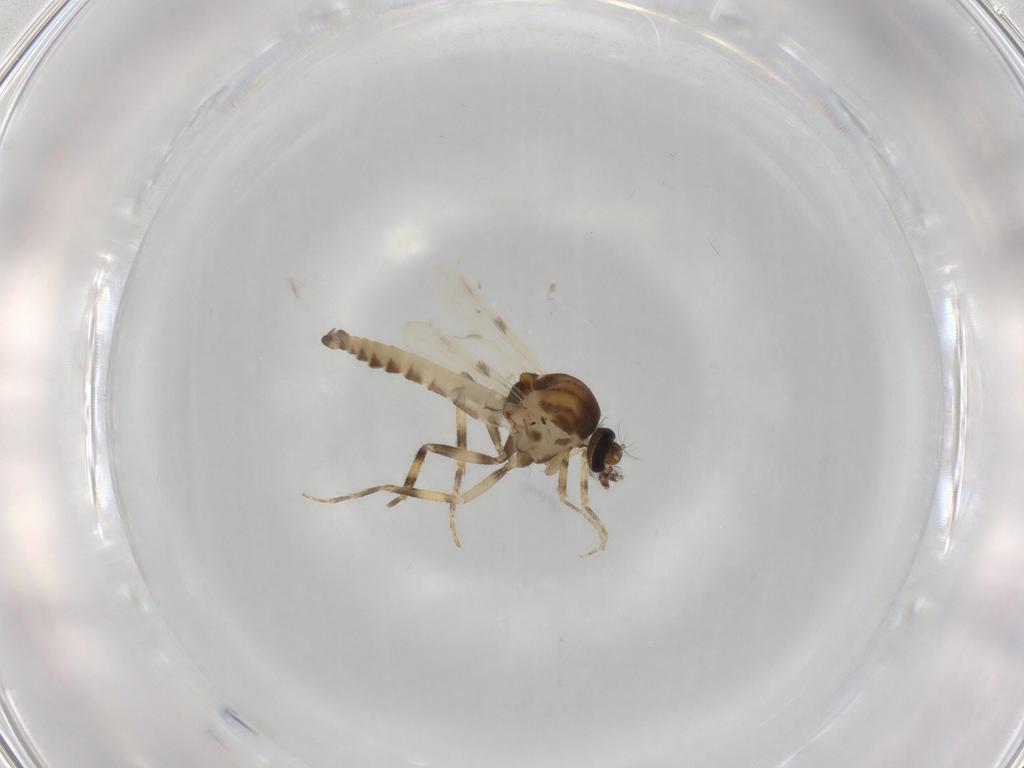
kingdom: Animalia
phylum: Arthropoda
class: Insecta
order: Diptera
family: Ceratopogonidae
